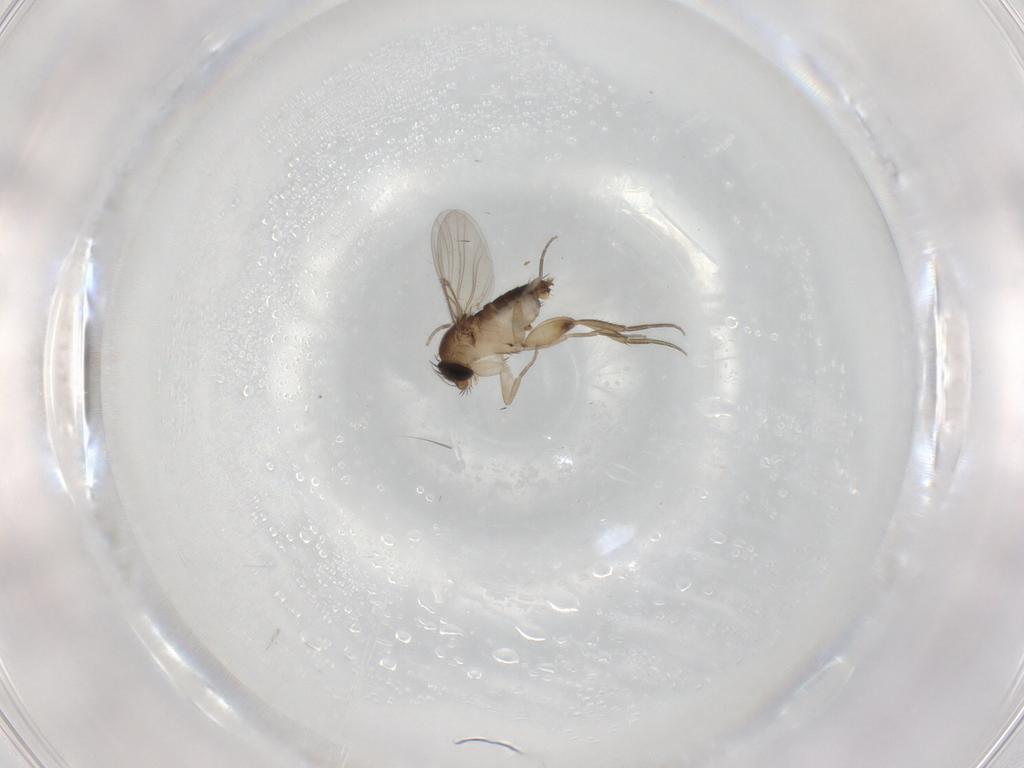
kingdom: Animalia
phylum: Arthropoda
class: Insecta
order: Diptera
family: Phoridae
